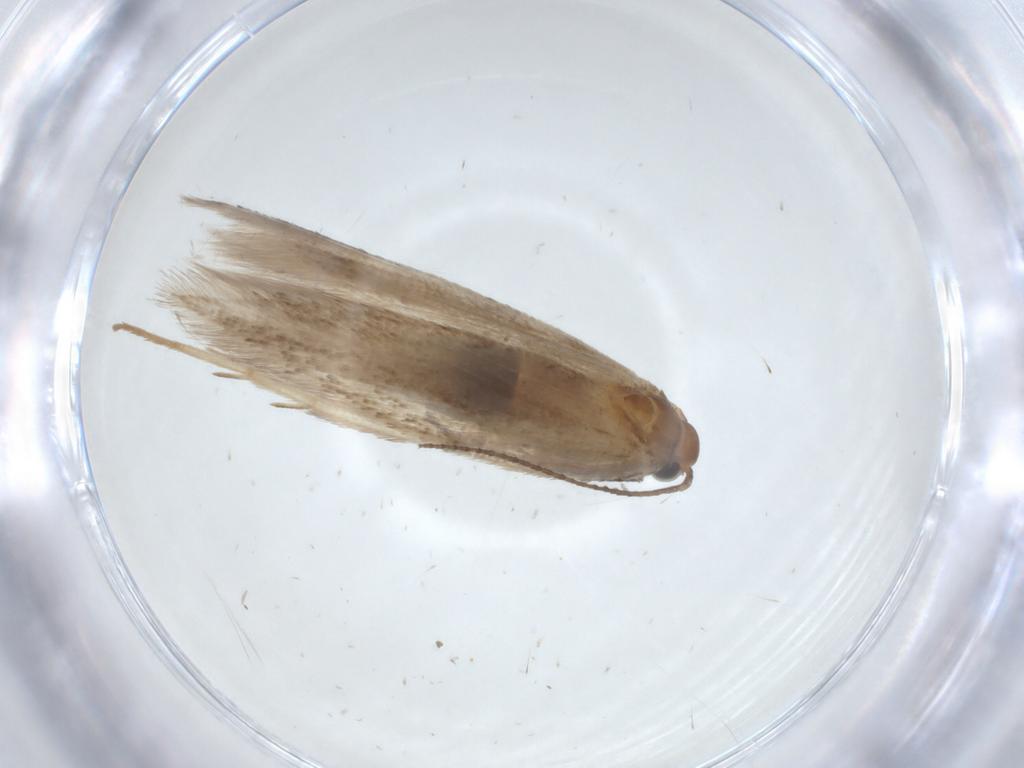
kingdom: Animalia
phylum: Arthropoda
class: Insecta
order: Lepidoptera
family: Gelechiidae
